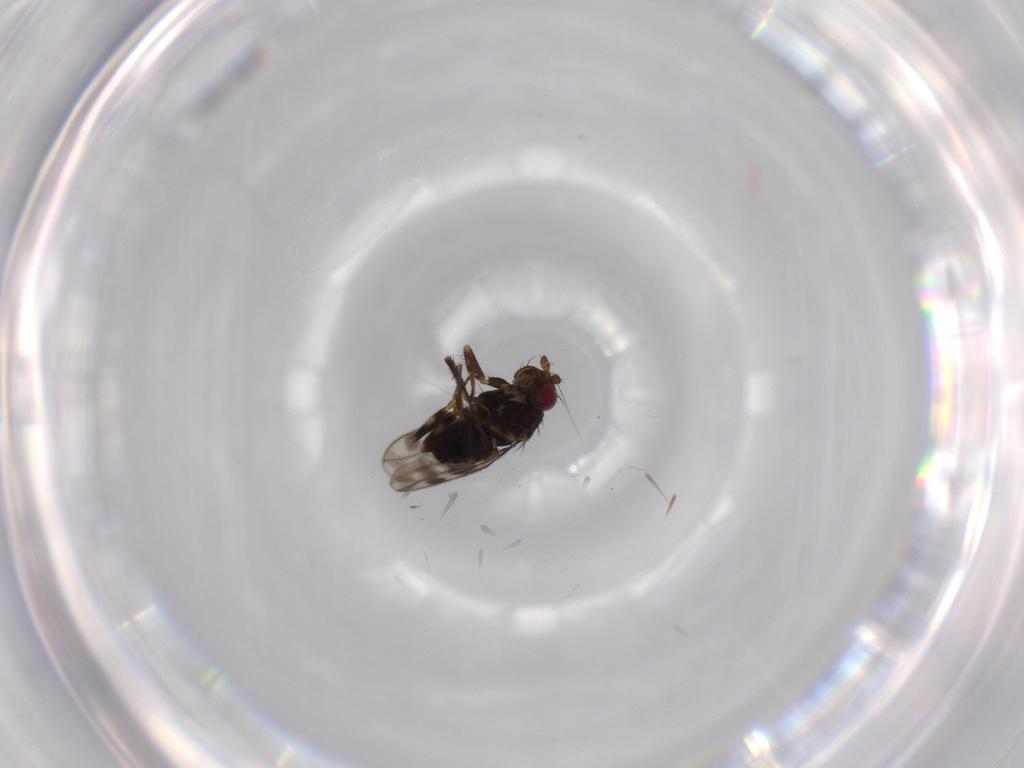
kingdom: Animalia
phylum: Arthropoda
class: Insecta
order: Diptera
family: Sphaeroceridae
